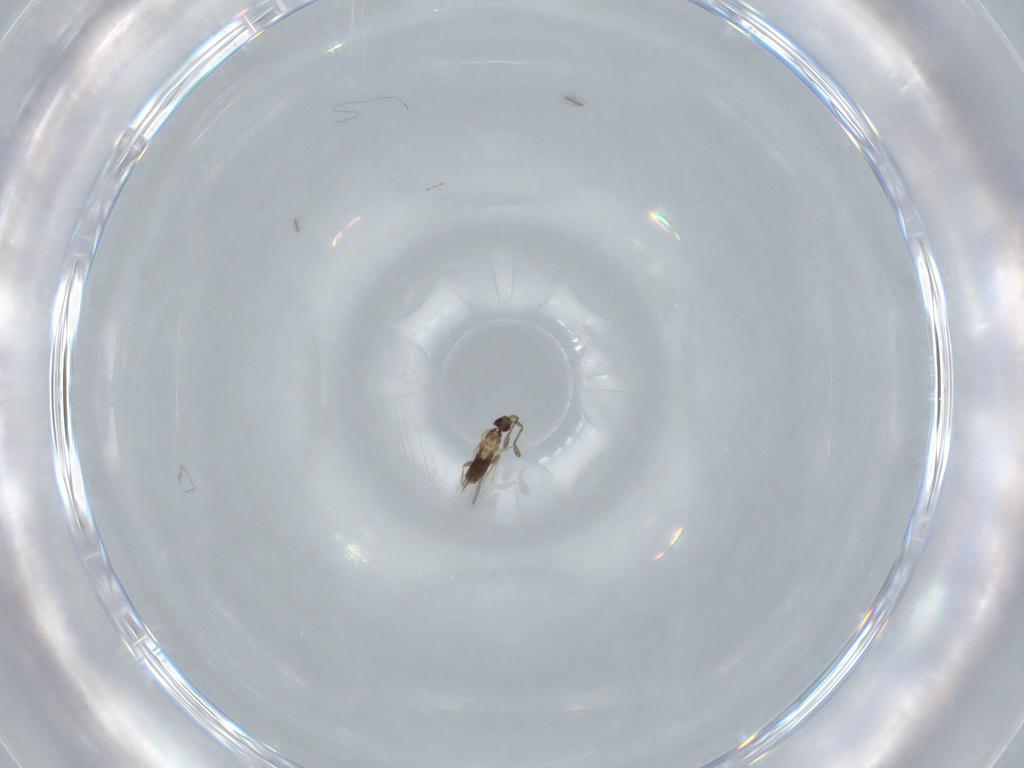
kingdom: Animalia
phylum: Arthropoda
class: Insecta
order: Hymenoptera
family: Mymaridae
